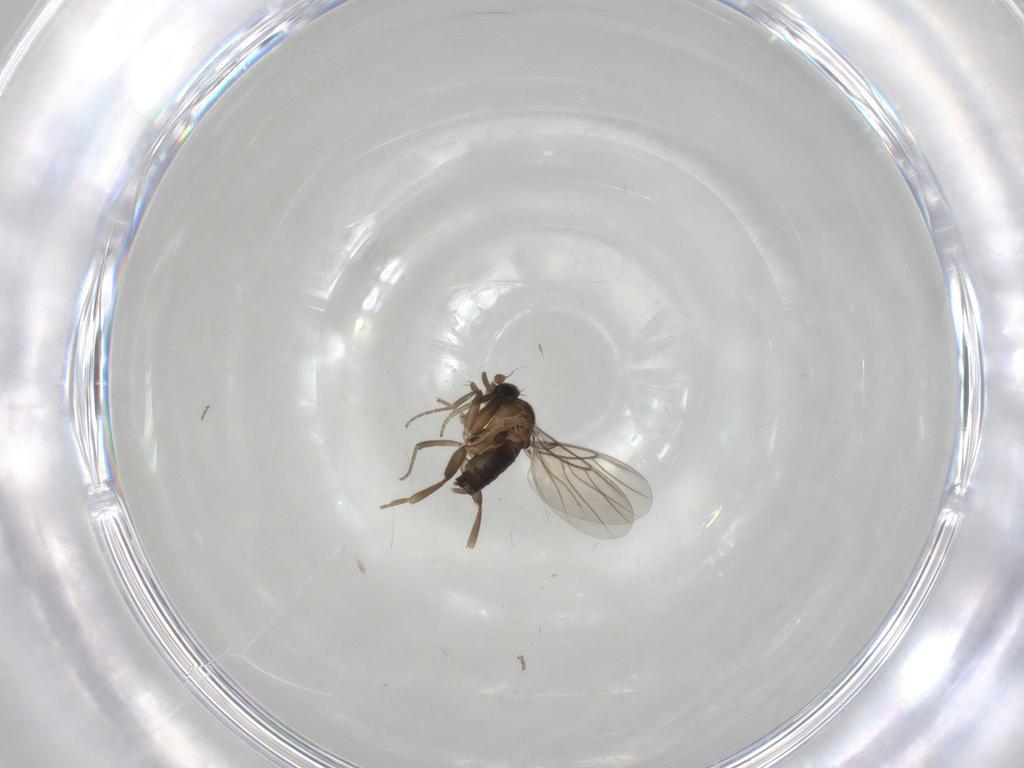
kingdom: Animalia
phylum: Arthropoda
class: Insecta
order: Diptera
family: Phoridae
